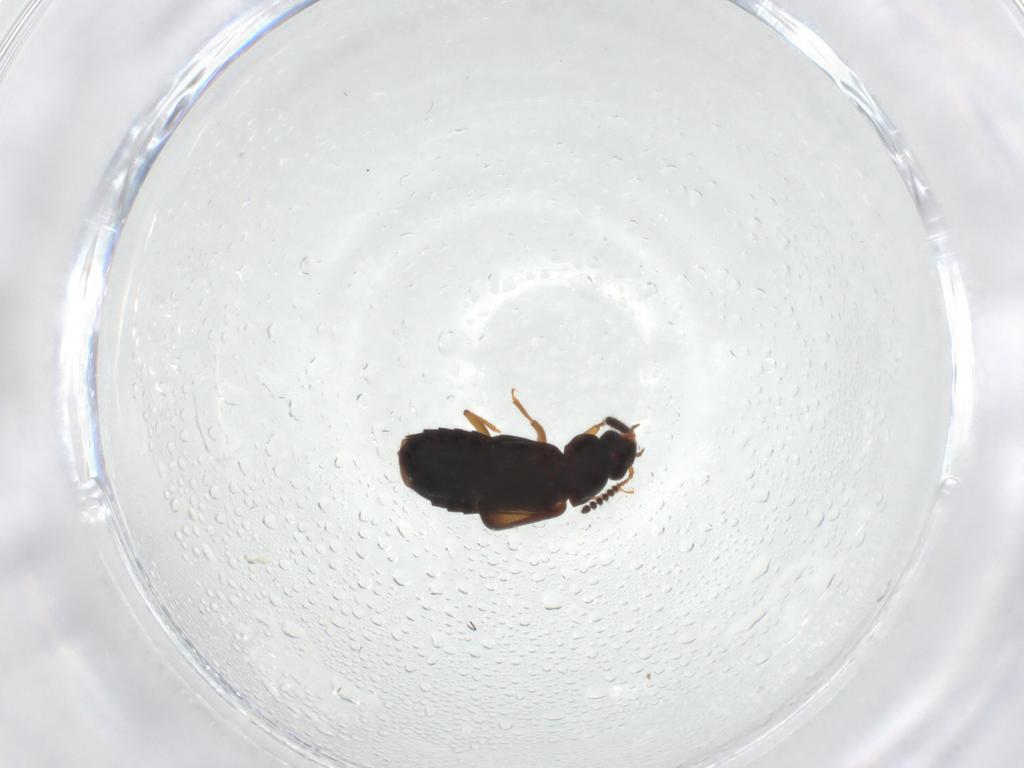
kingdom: Animalia
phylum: Arthropoda
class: Insecta
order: Coleoptera
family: Staphylinidae
